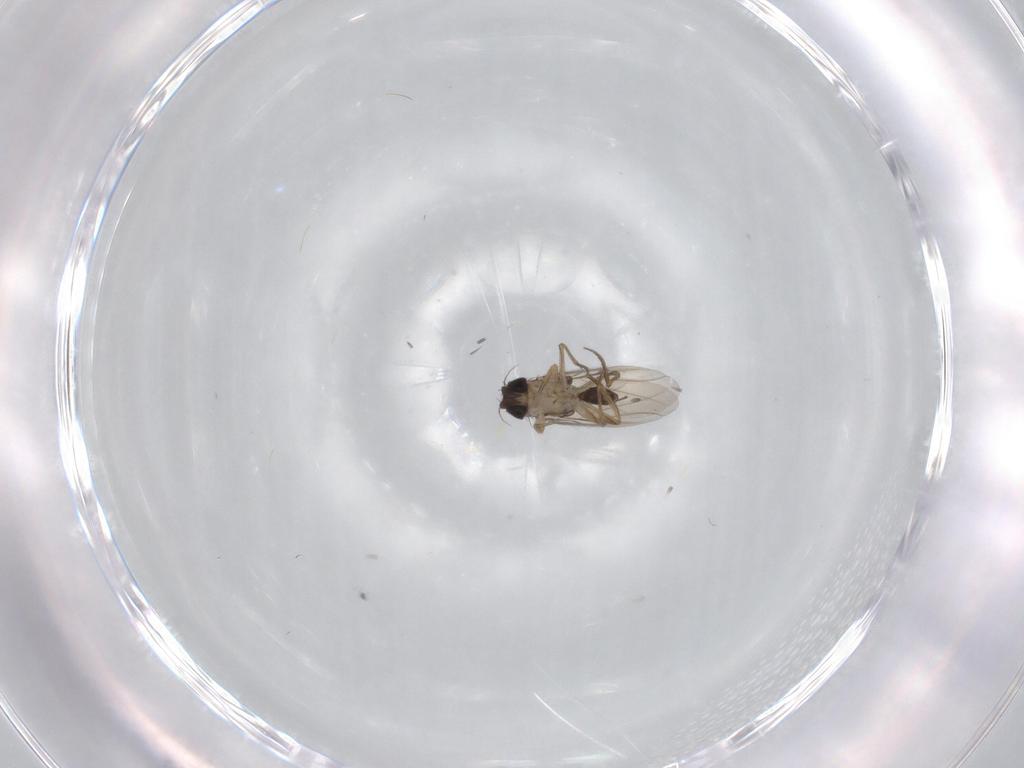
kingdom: Animalia
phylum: Arthropoda
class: Insecta
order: Diptera
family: Phoridae
